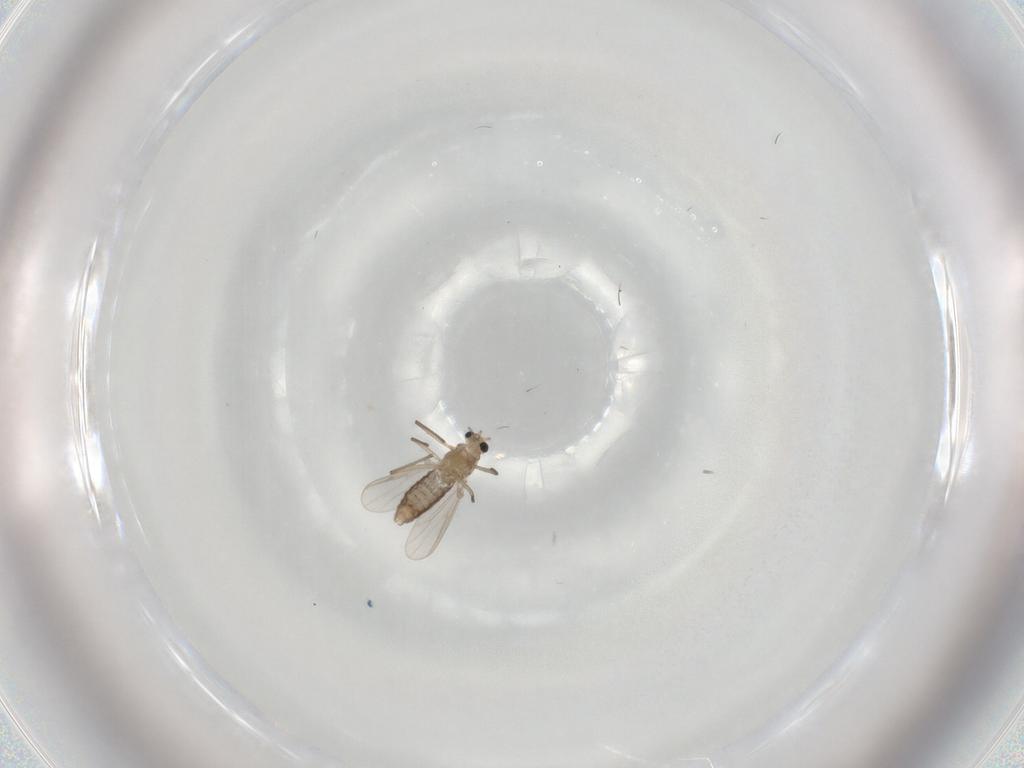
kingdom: Animalia
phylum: Arthropoda
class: Insecta
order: Diptera
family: Chironomidae
